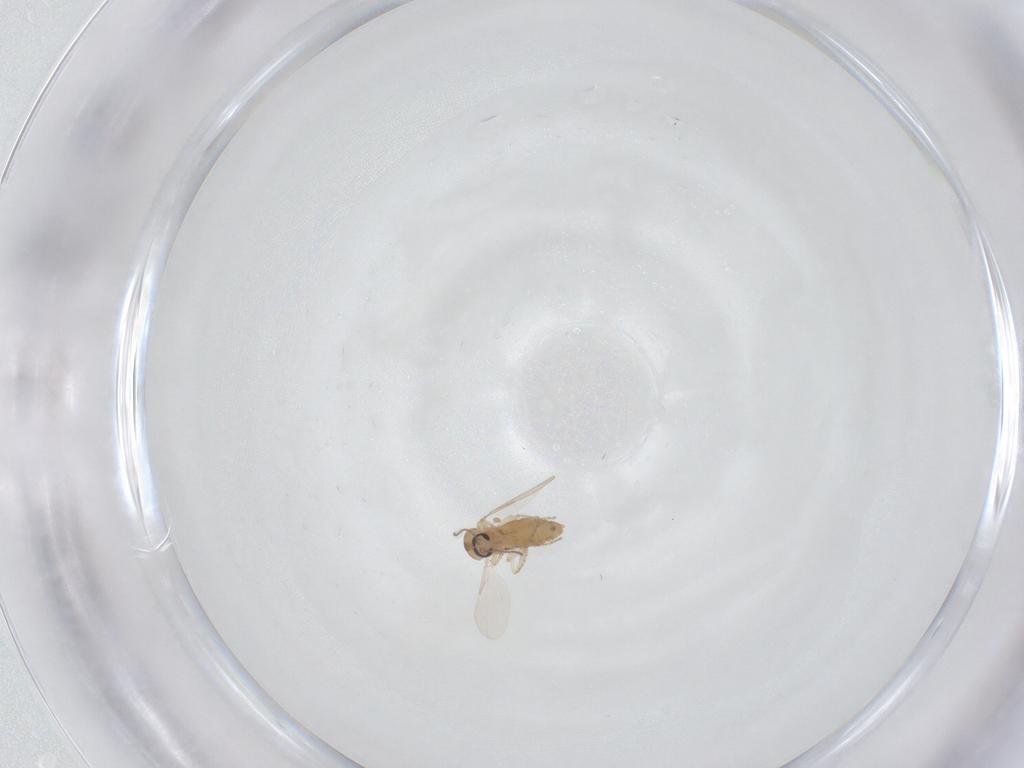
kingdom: Animalia
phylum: Arthropoda
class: Insecta
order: Diptera
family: Ceratopogonidae
